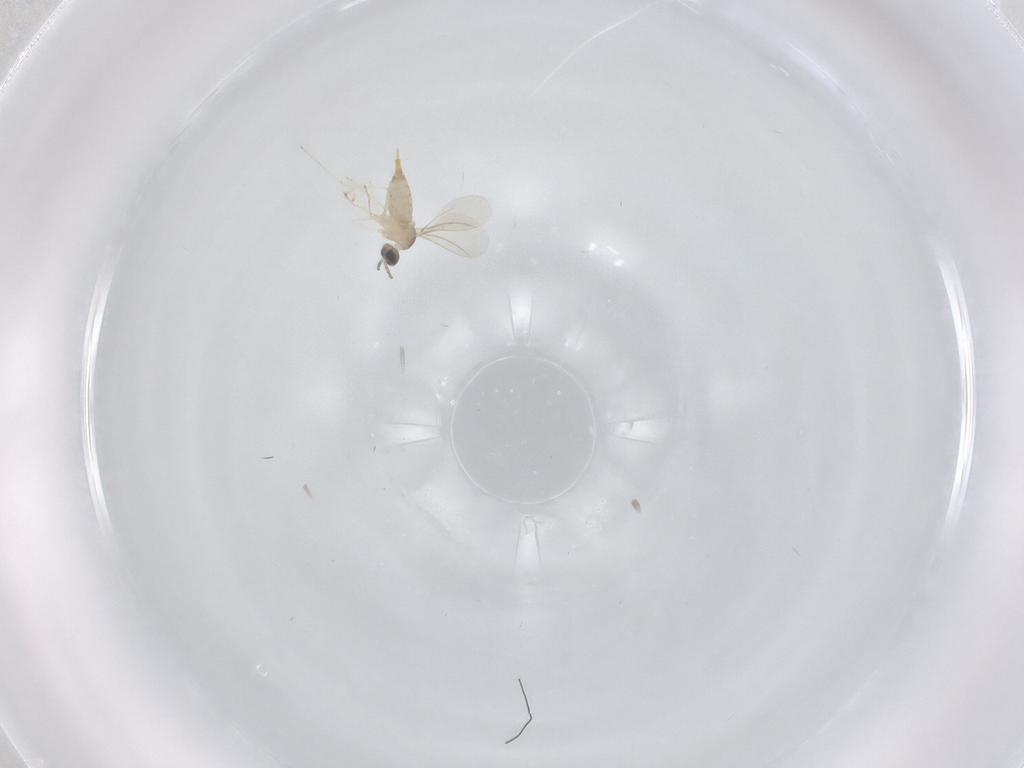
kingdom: Animalia
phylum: Arthropoda
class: Insecta
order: Diptera
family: Cecidomyiidae
